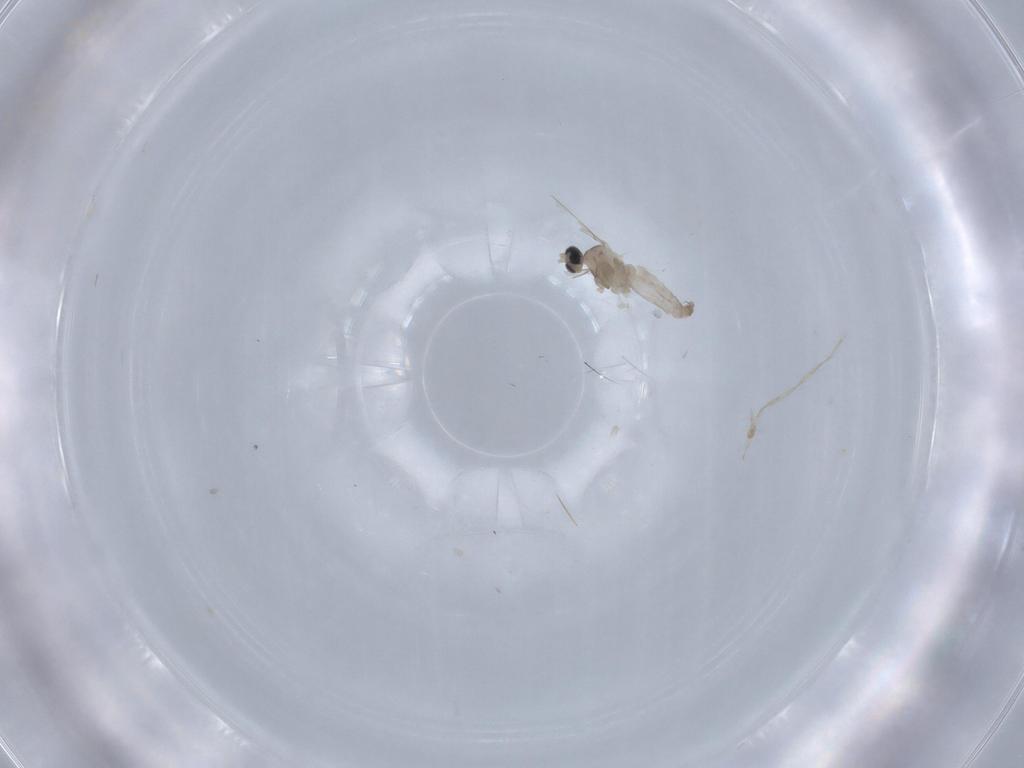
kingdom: Animalia
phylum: Arthropoda
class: Insecta
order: Diptera
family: Cecidomyiidae
